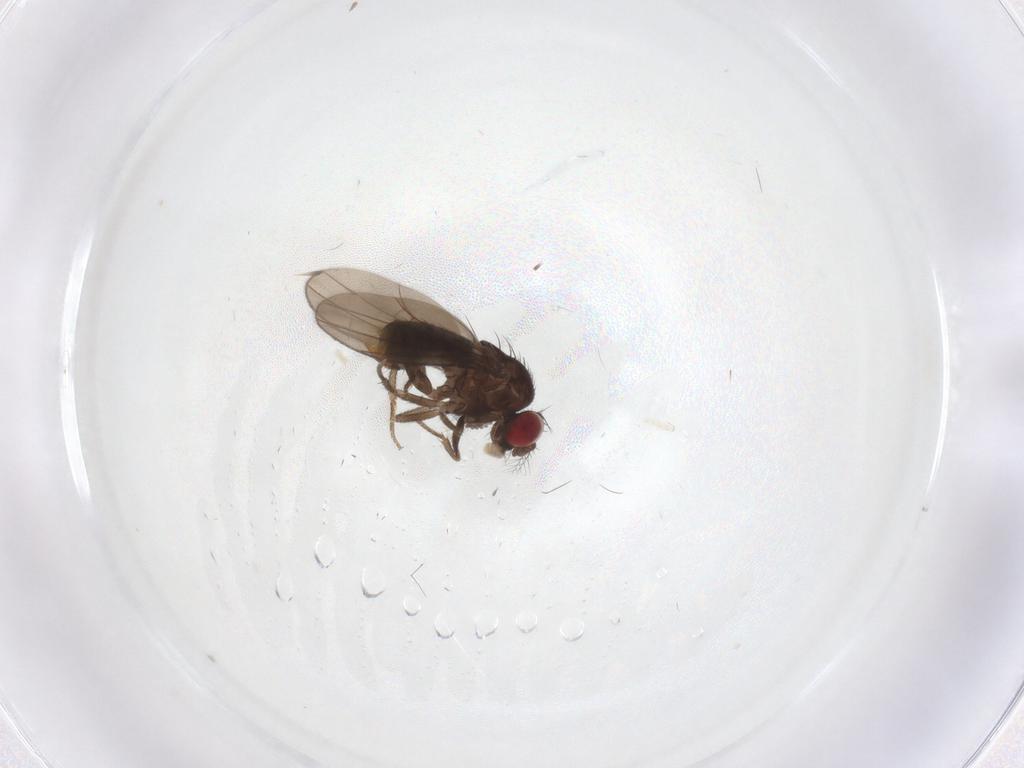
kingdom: Animalia
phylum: Arthropoda
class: Insecta
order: Diptera
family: Drosophilidae
